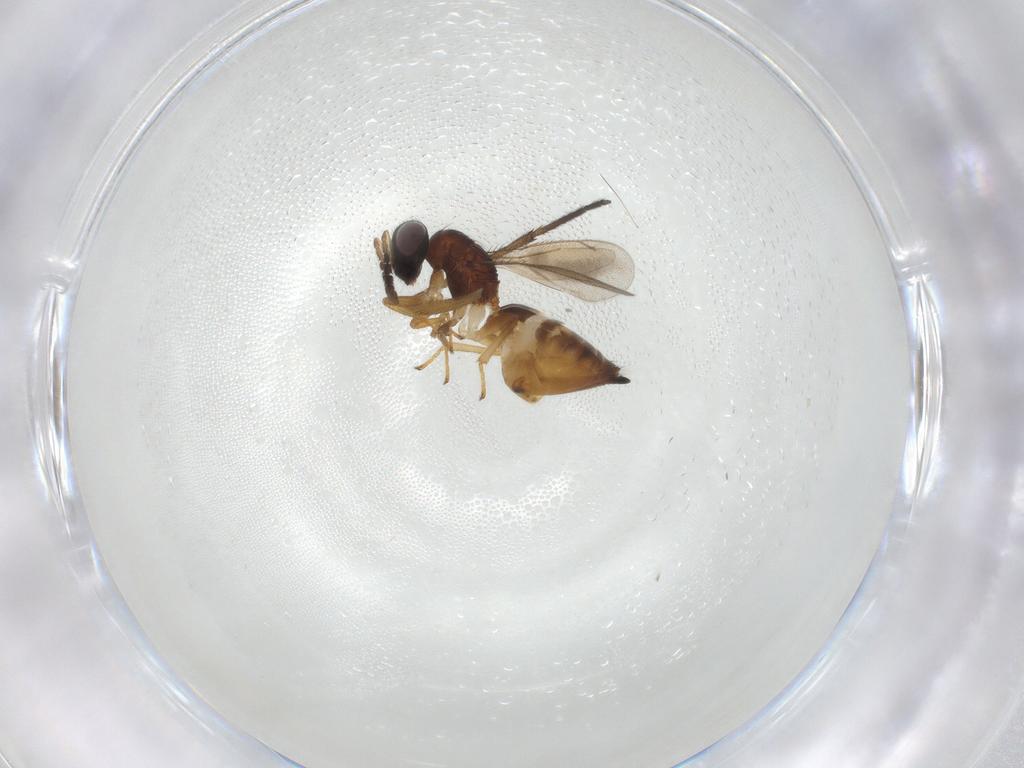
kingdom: Animalia
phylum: Arthropoda
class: Insecta
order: Hymenoptera
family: Eulophidae
